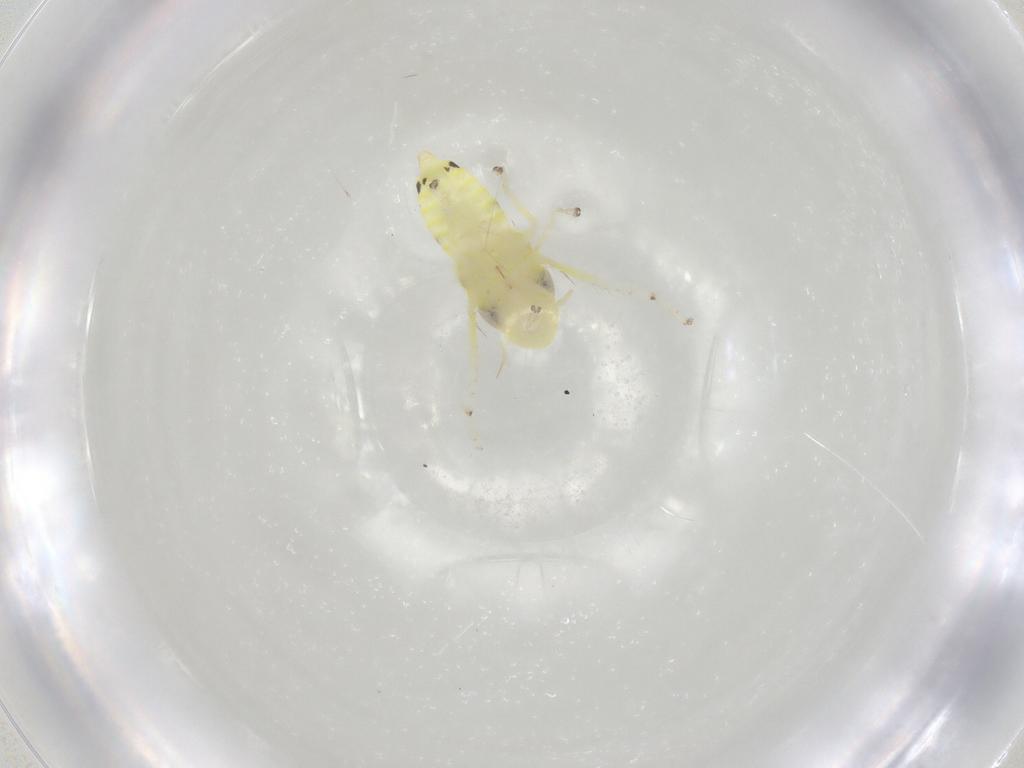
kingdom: Animalia
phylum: Arthropoda
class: Insecta
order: Hemiptera
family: Cicadellidae
